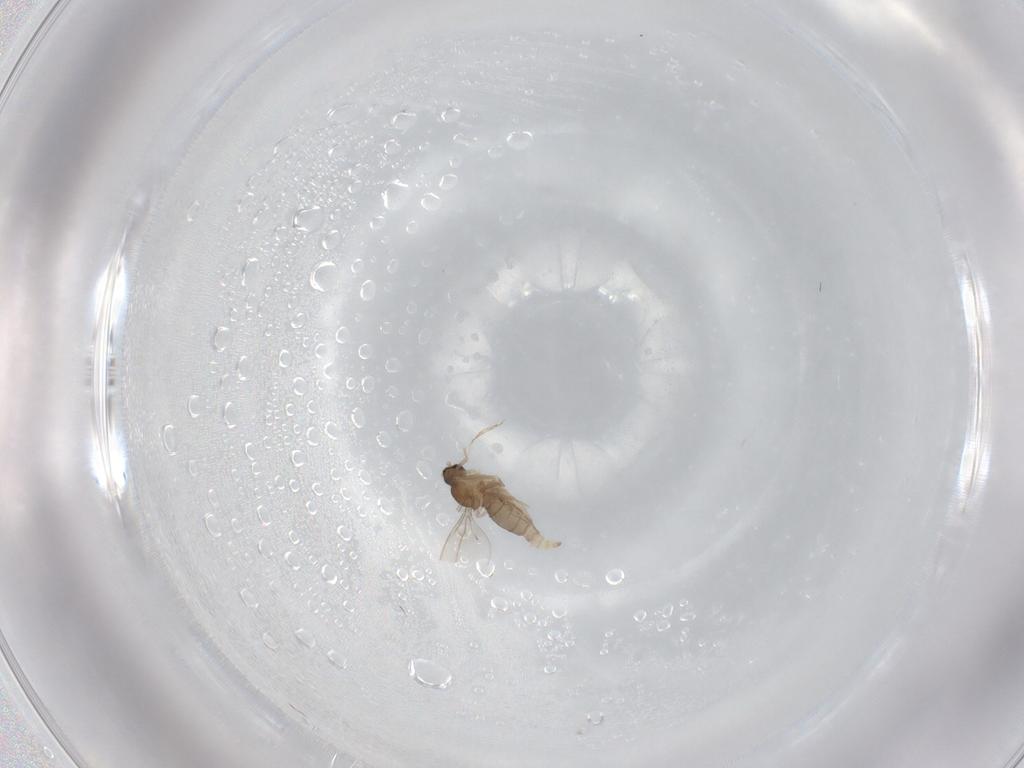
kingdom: Animalia
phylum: Arthropoda
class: Insecta
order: Diptera
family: Cecidomyiidae
